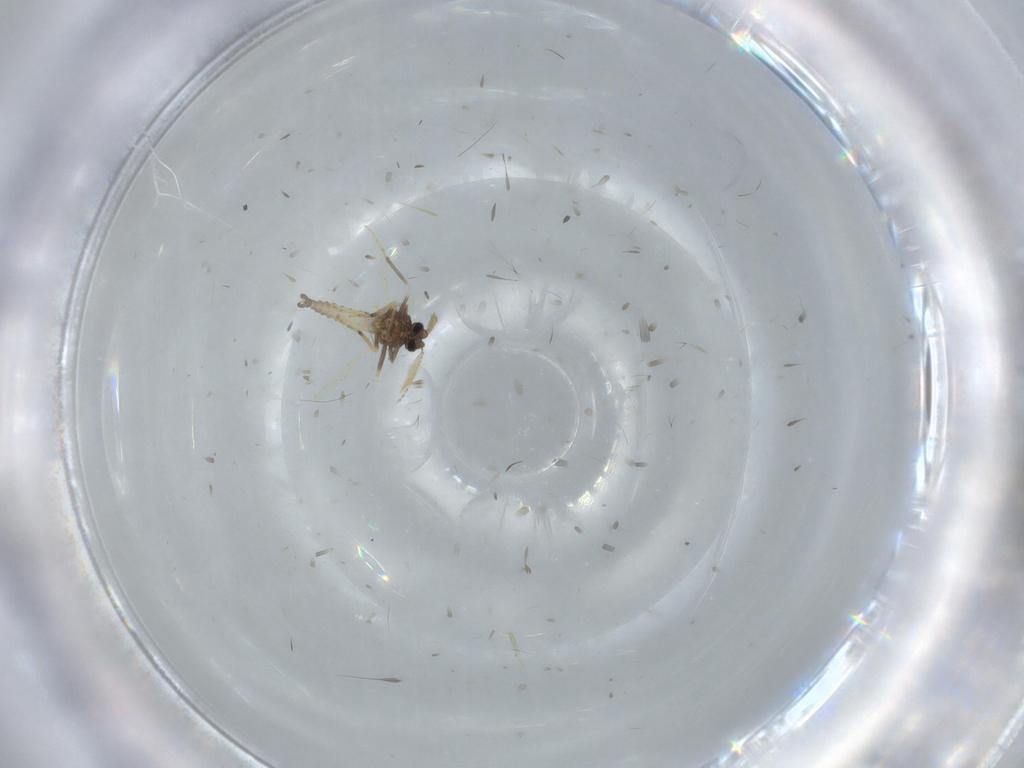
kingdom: Animalia
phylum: Arthropoda
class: Insecta
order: Diptera
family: Ceratopogonidae
